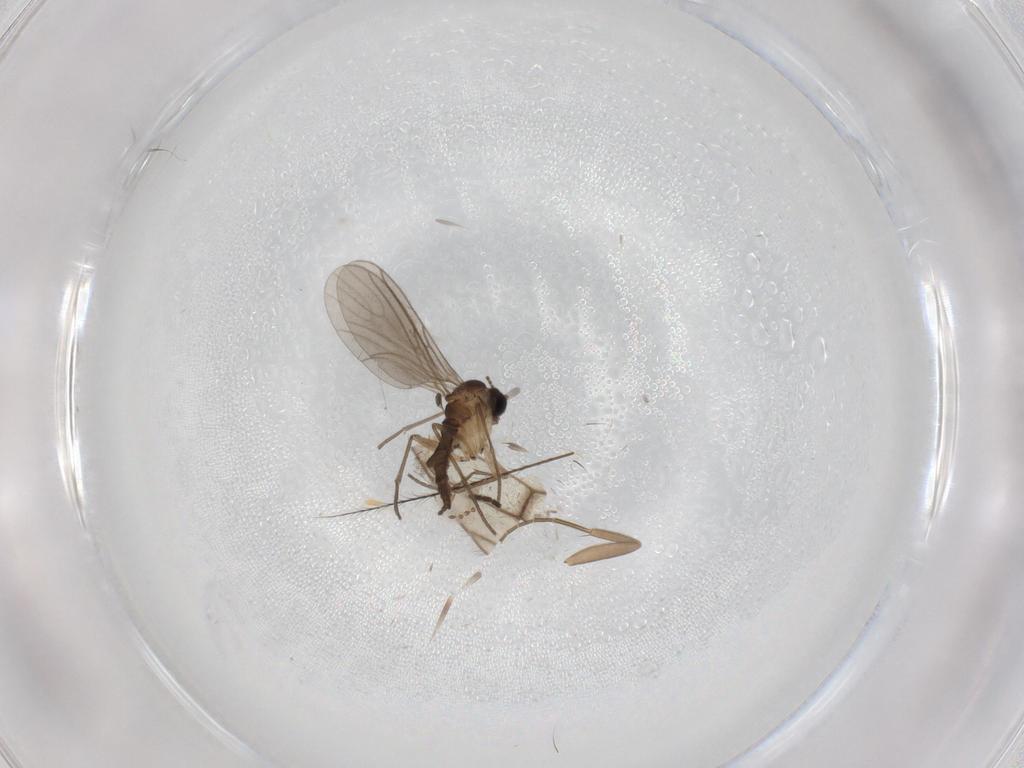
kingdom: Animalia
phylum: Arthropoda
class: Insecta
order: Diptera
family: Sciaridae
